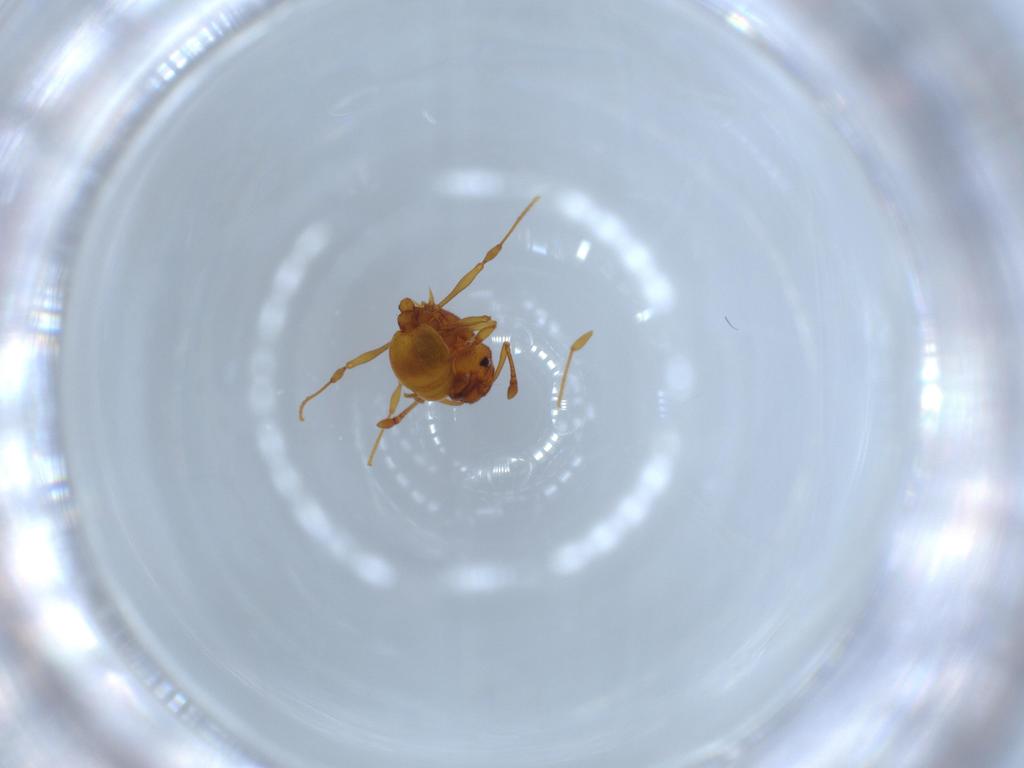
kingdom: Animalia
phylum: Arthropoda
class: Insecta
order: Hymenoptera
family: Formicidae
